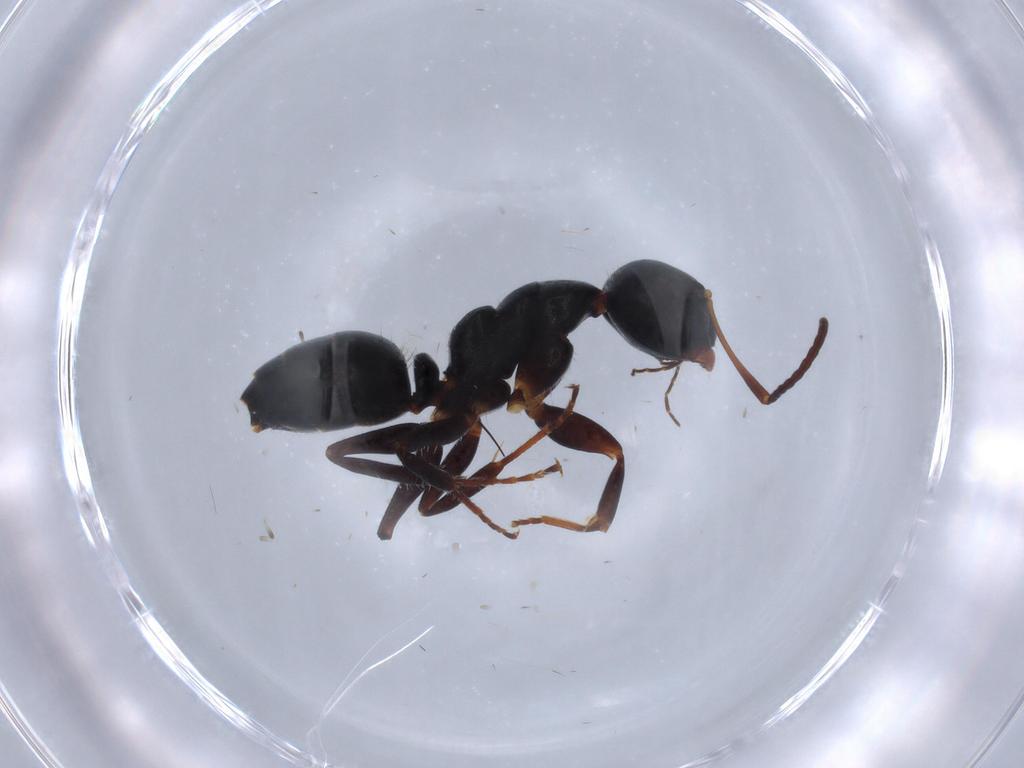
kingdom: Animalia
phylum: Arthropoda
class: Insecta
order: Hymenoptera
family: Formicidae
